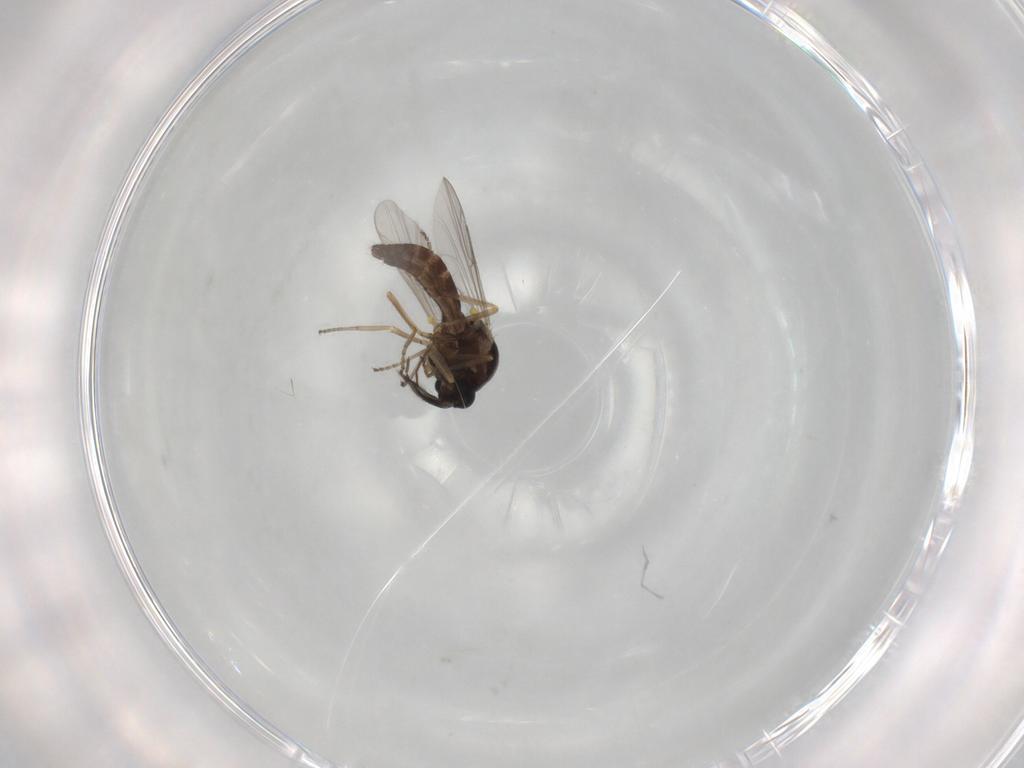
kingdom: Animalia
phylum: Arthropoda
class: Insecta
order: Diptera
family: Ceratopogonidae
